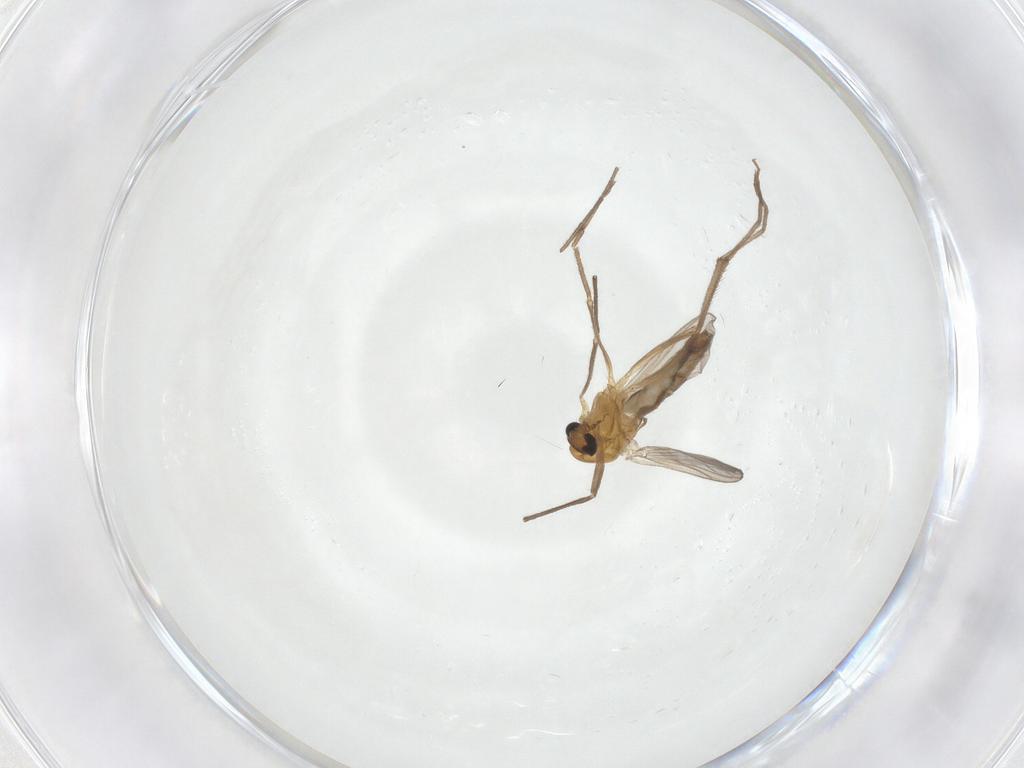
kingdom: Animalia
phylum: Arthropoda
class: Insecta
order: Diptera
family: Chironomidae
